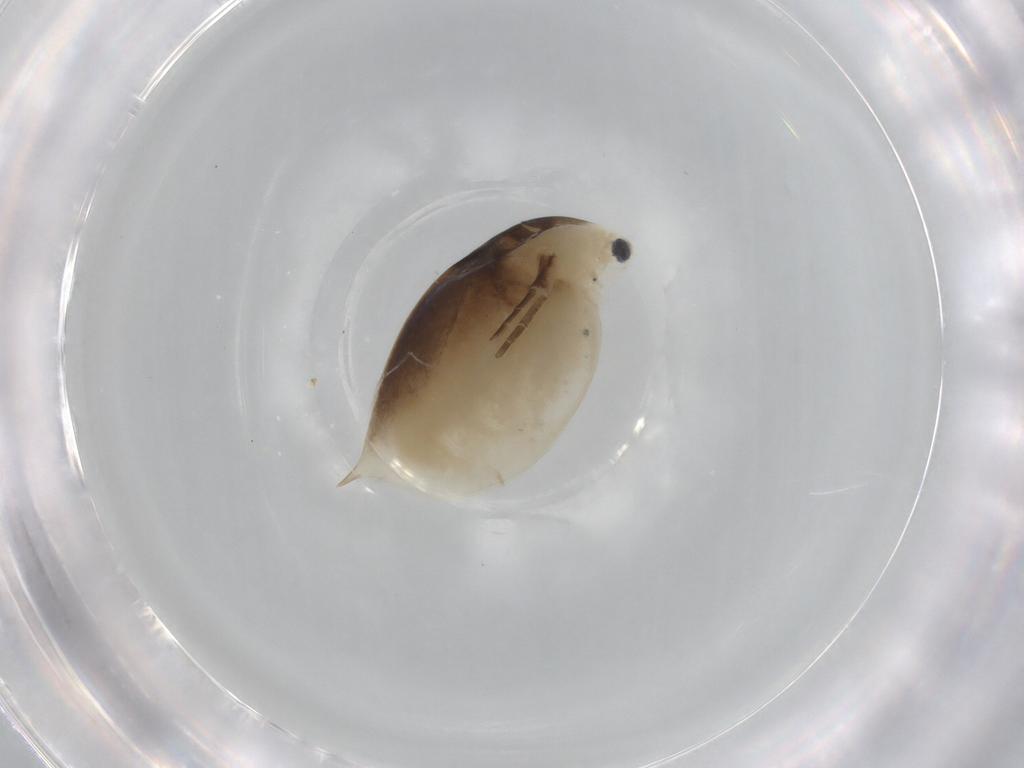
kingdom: Animalia
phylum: Arthropoda
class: Branchiopoda
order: Diplostraca
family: Daphniidae
